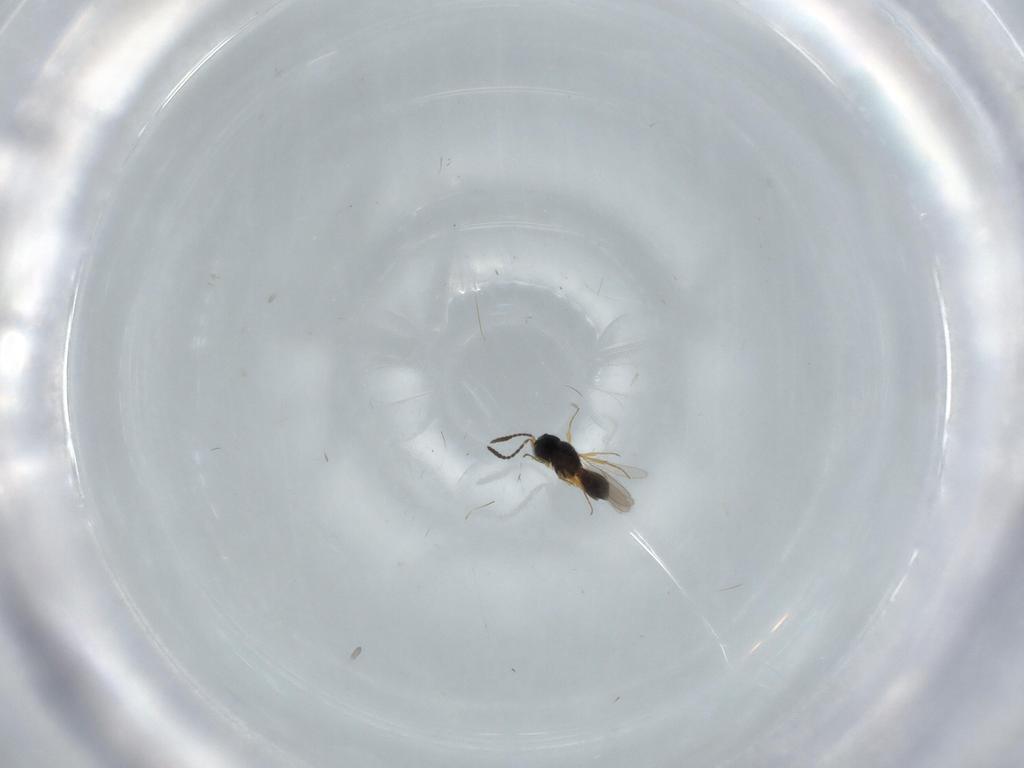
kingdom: Animalia
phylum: Arthropoda
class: Insecta
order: Hymenoptera
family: Scelionidae
